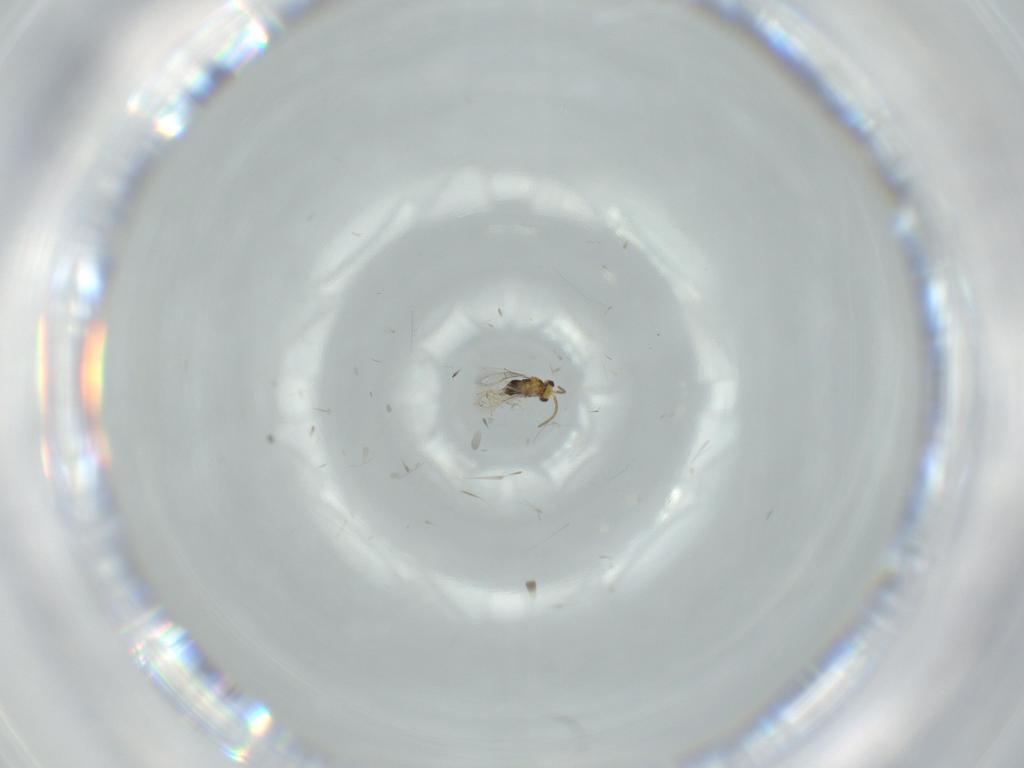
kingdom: Animalia
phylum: Arthropoda
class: Insecta
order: Hymenoptera
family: Aphelinidae
